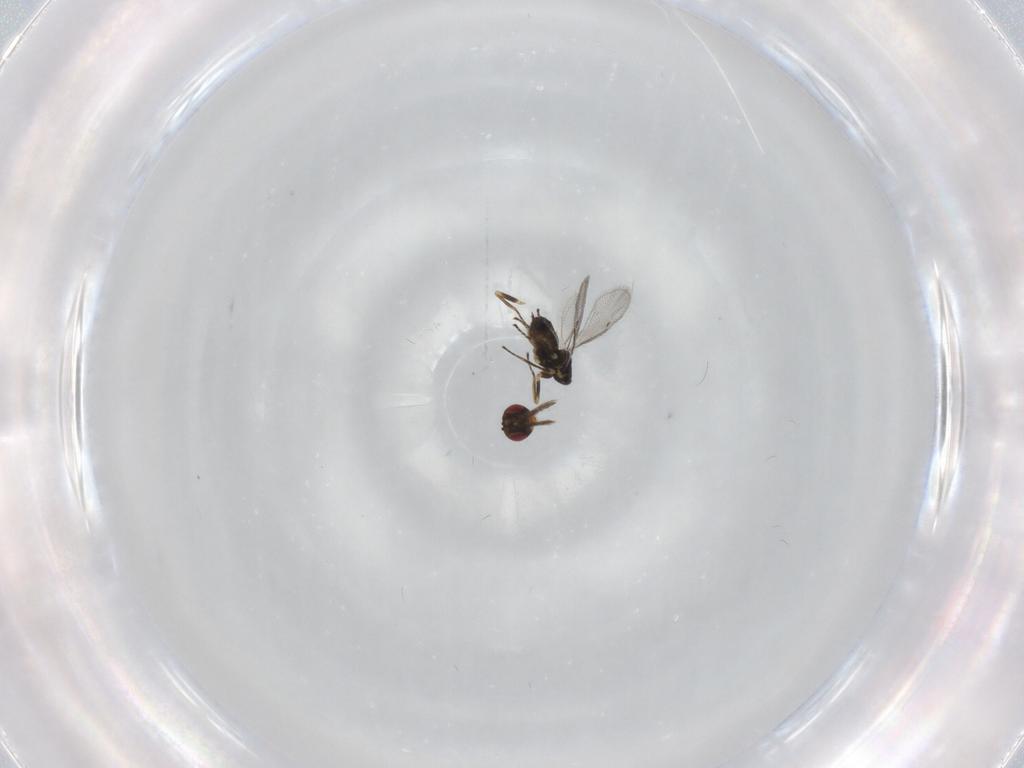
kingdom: Animalia
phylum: Arthropoda
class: Insecta
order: Hymenoptera
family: Eulophidae
